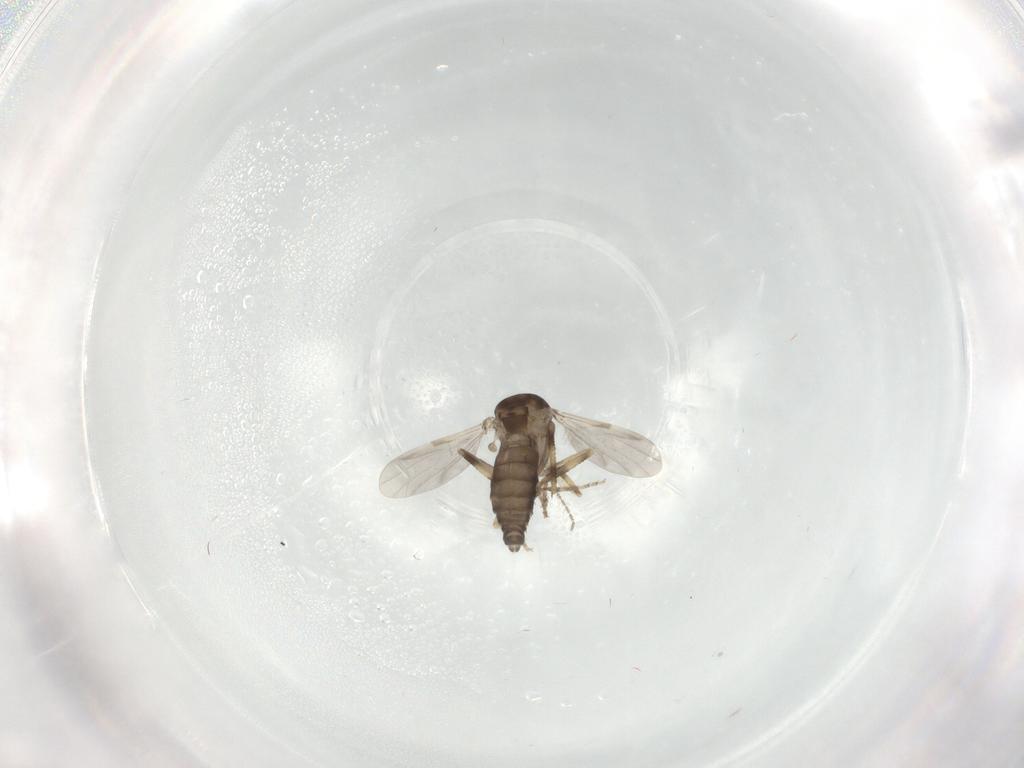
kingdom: Animalia
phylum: Arthropoda
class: Insecta
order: Diptera
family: Ceratopogonidae
